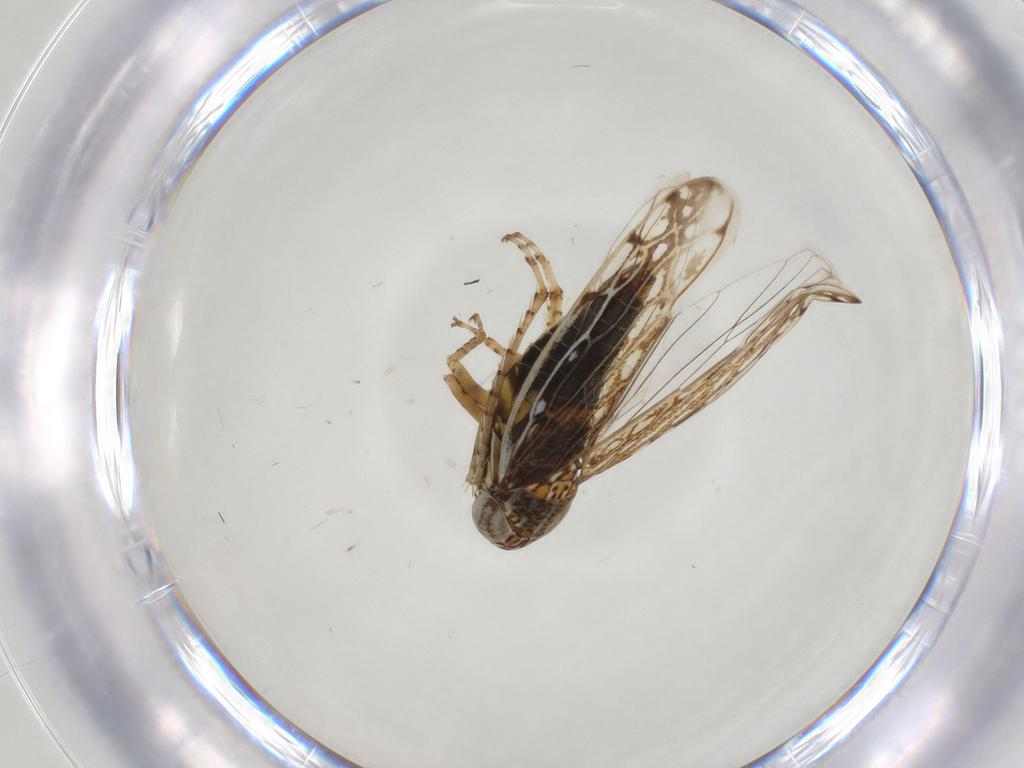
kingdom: Animalia
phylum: Arthropoda
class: Insecta
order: Hemiptera
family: Cicadellidae
